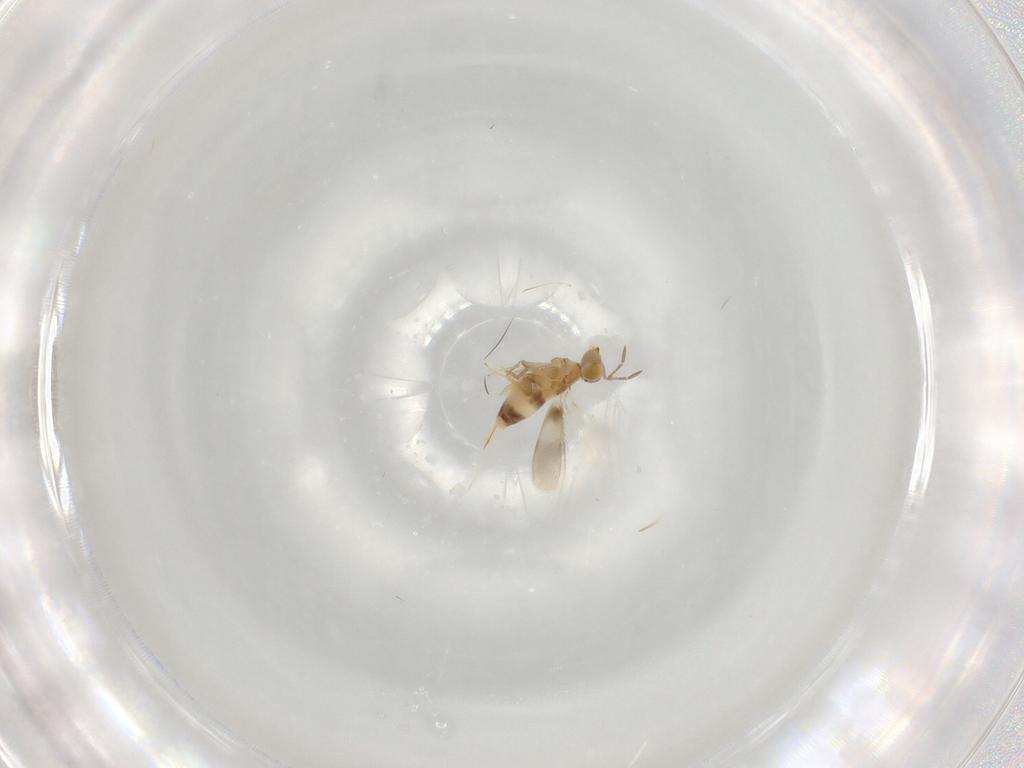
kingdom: Animalia
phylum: Arthropoda
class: Insecta
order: Hymenoptera
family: Aphelinidae
